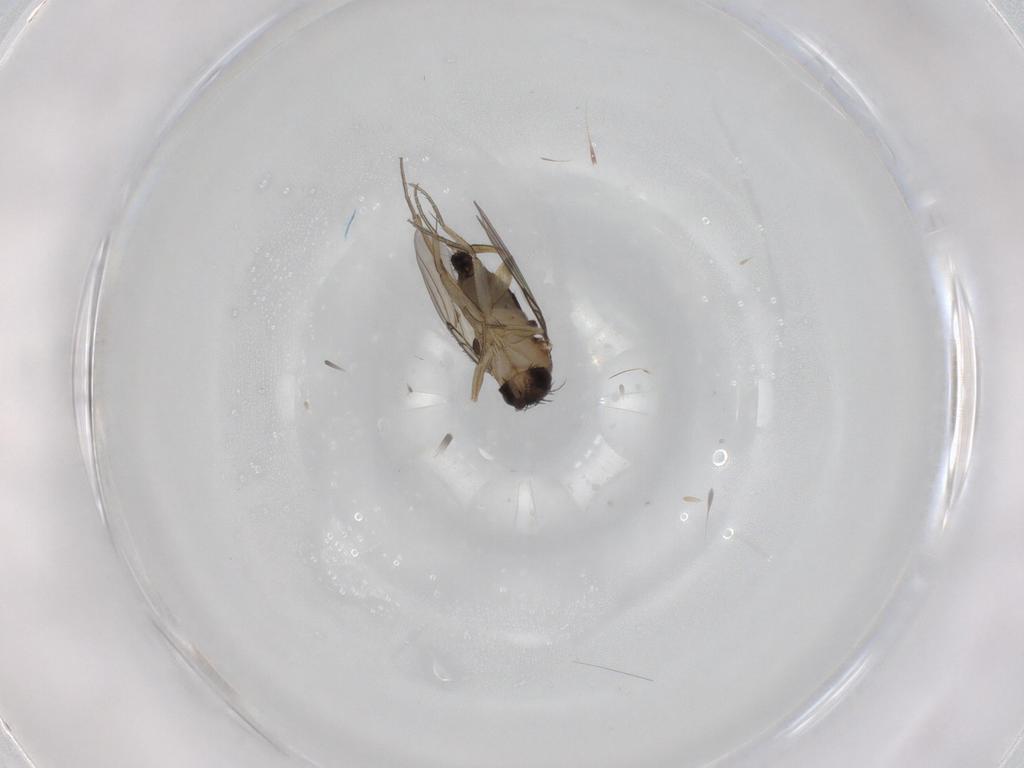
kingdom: Animalia
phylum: Arthropoda
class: Insecta
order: Diptera
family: Phoridae
